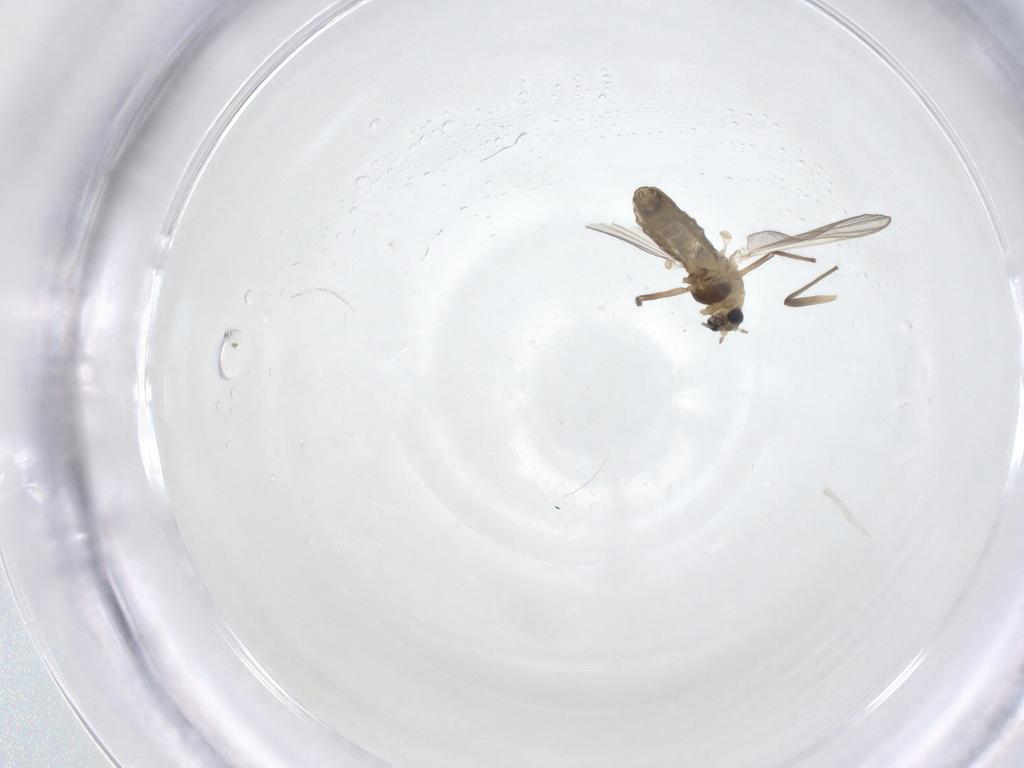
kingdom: Animalia
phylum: Arthropoda
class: Insecta
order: Diptera
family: Chironomidae
